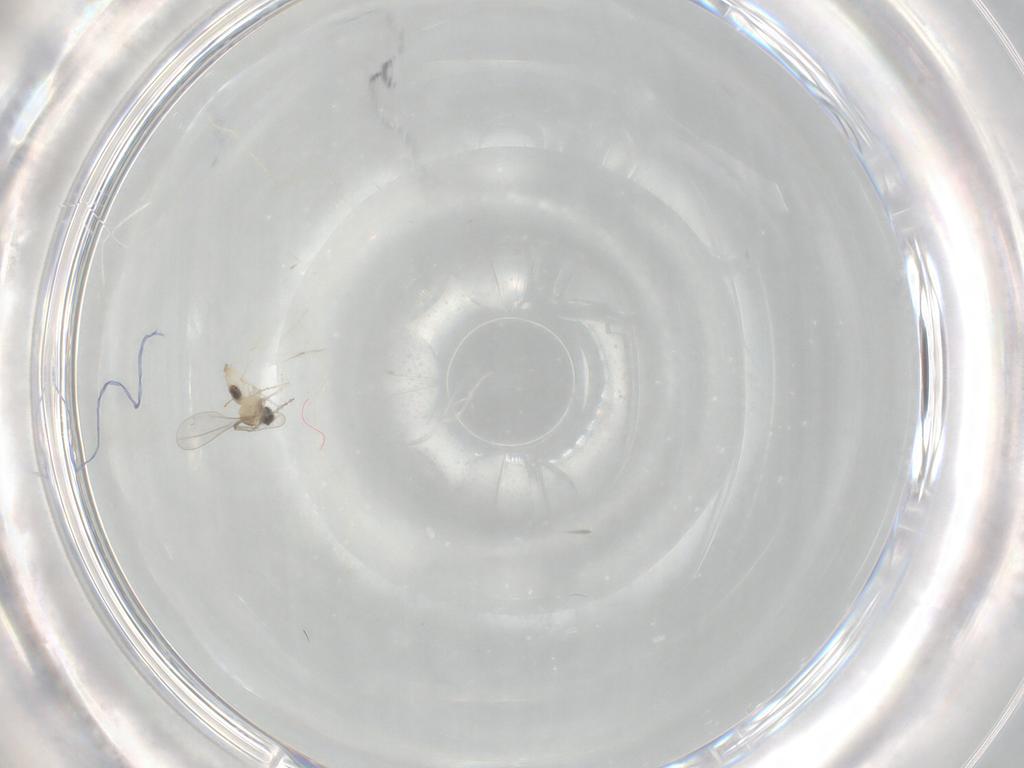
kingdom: Animalia
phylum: Arthropoda
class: Insecta
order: Diptera
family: Cecidomyiidae
